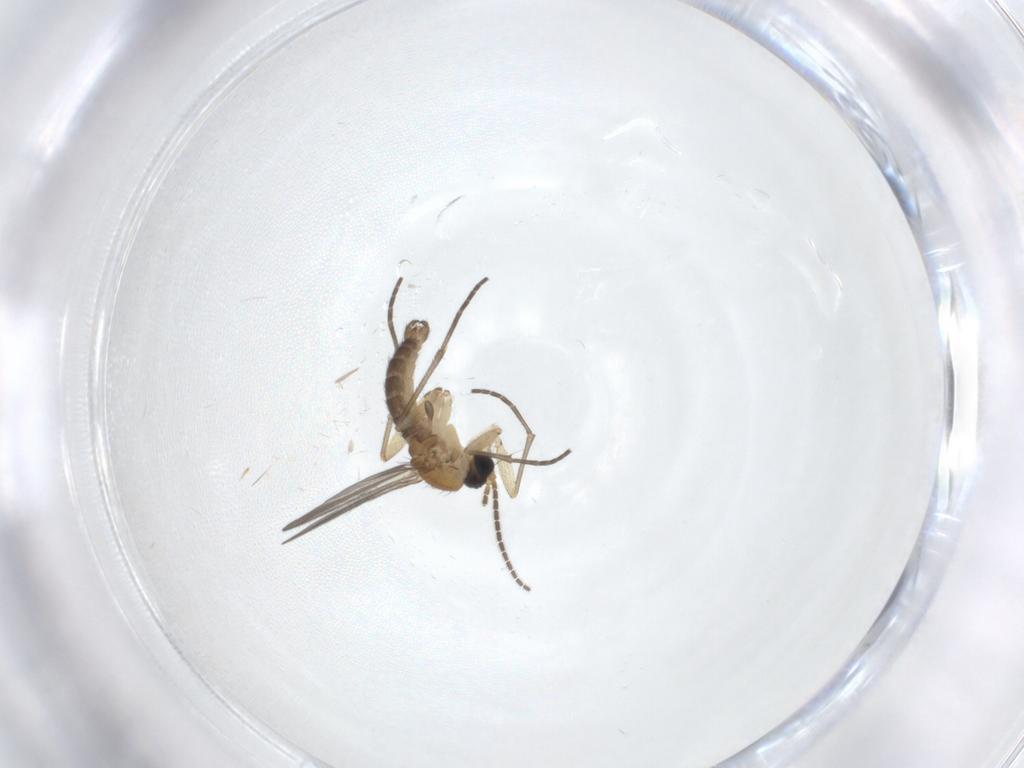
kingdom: Animalia
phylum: Arthropoda
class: Insecta
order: Diptera
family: Sciaridae
